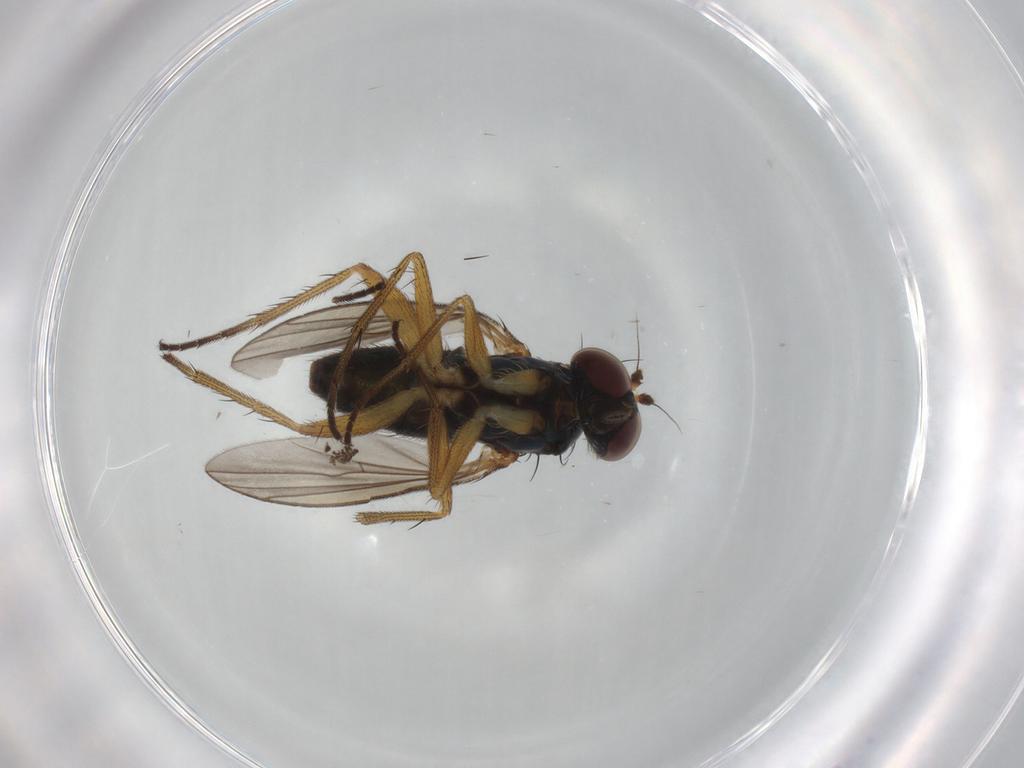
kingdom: Animalia
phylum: Arthropoda
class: Insecta
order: Diptera
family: Dolichopodidae
